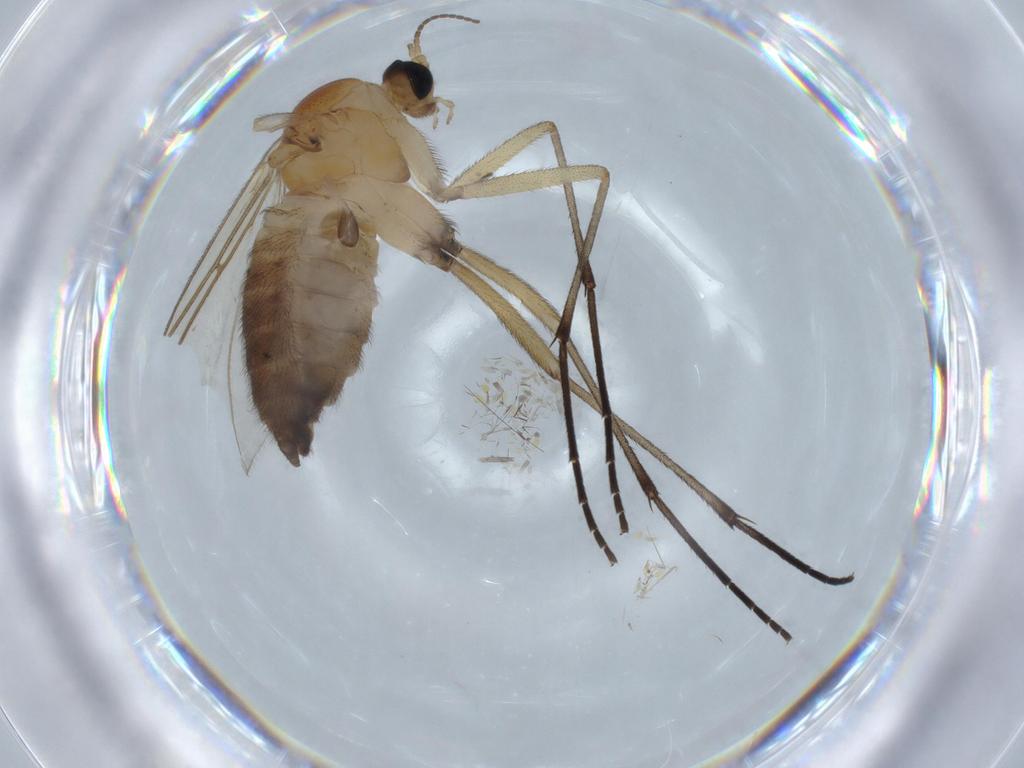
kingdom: Animalia
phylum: Arthropoda
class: Insecta
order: Diptera
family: Sciaridae
